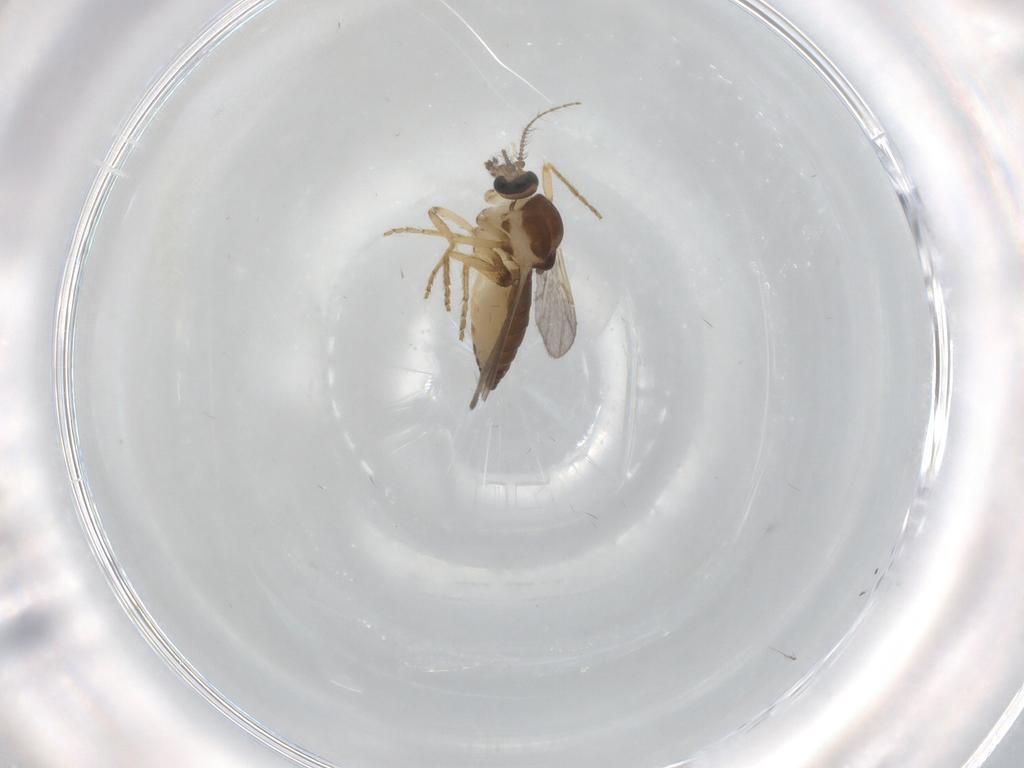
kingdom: Animalia
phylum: Arthropoda
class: Insecta
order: Diptera
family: Ceratopogonidae
